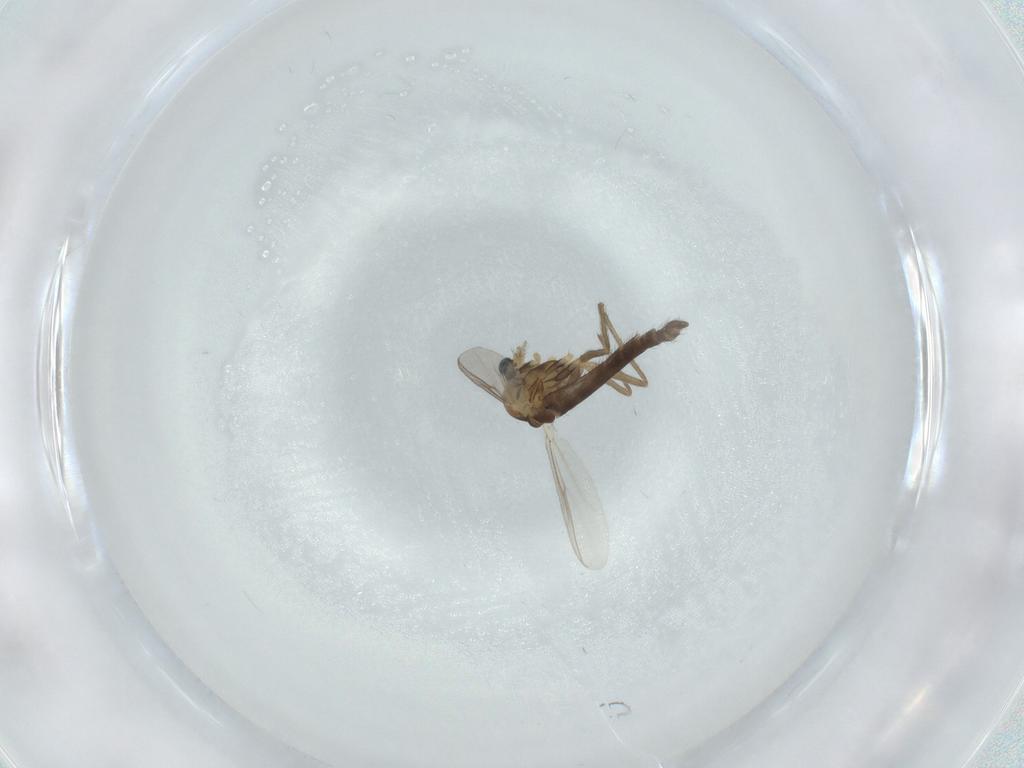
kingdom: Animalia
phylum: Arthropoda
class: Insecta
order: Diptera
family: Chironomidae
